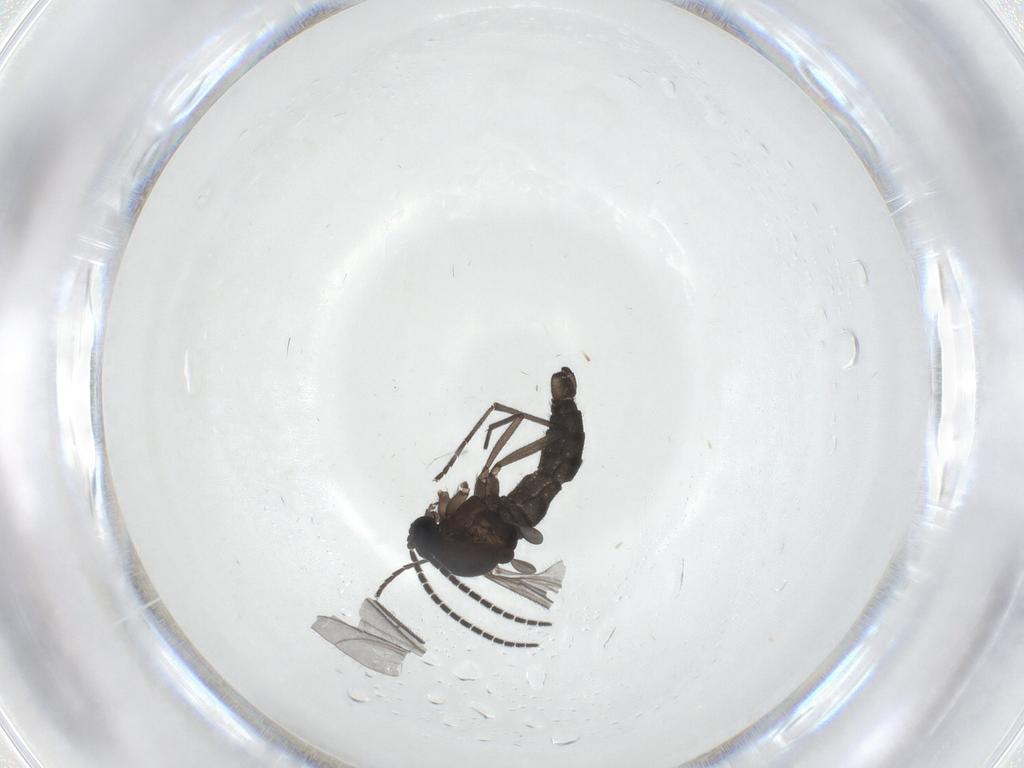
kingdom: Animalia
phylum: Arthropoda
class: Insecta
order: Diptera
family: Sciaridae
